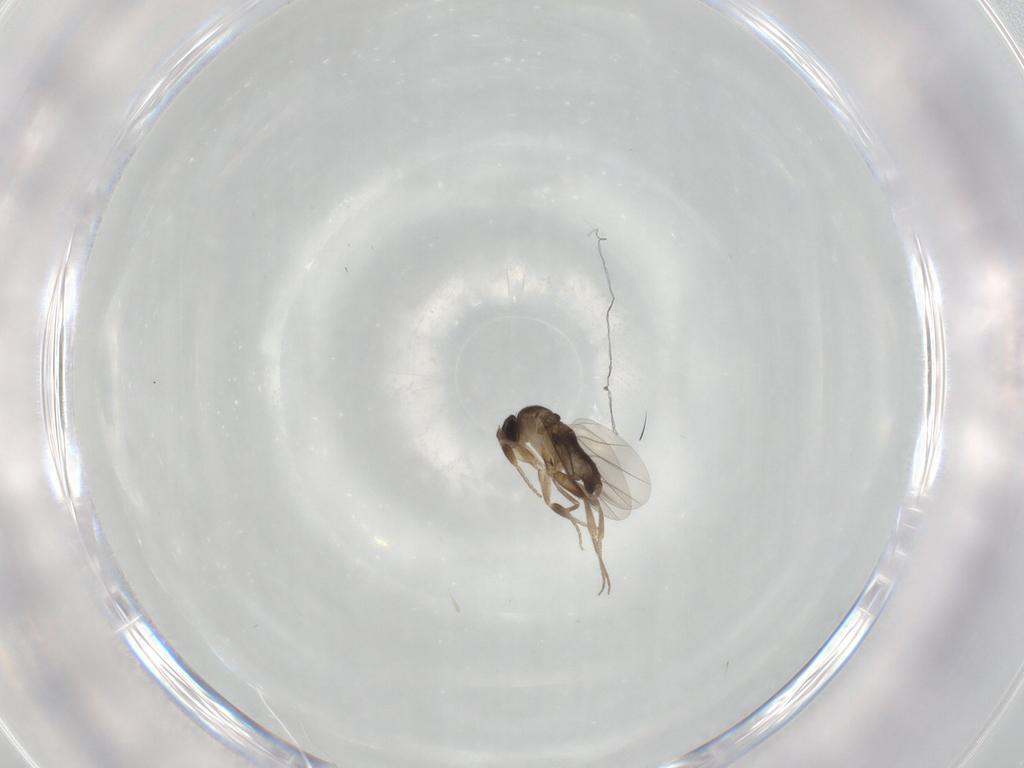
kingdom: Animalia
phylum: Arthropoda
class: Insecta
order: Diptera
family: Phoridae
